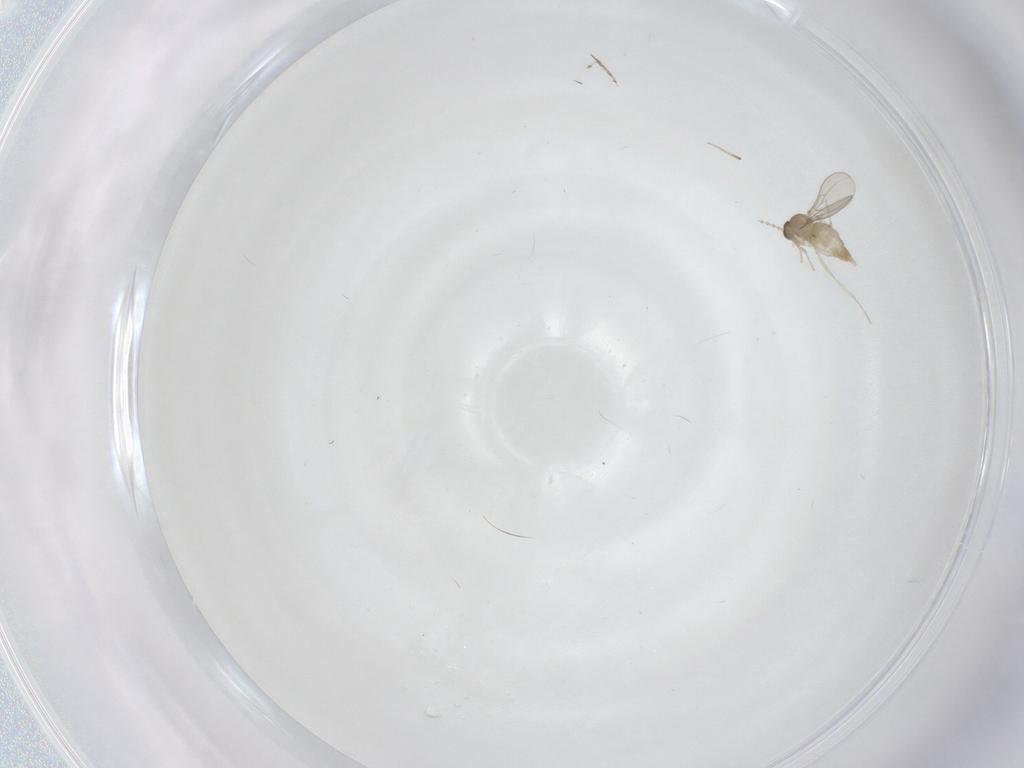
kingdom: Animalia
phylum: Arthropoda
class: Insecta
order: Diptera
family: Cecidomyiidae
